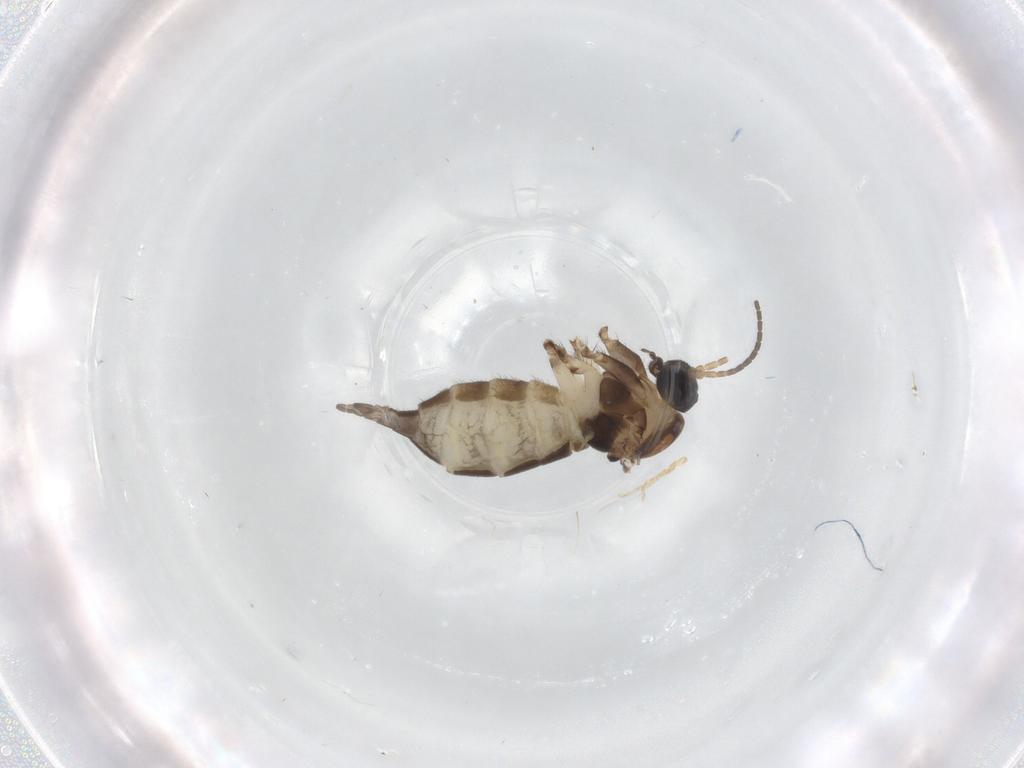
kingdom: Animalia
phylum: Arthropoda
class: Insecta
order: Diptera
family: Sciaridae
